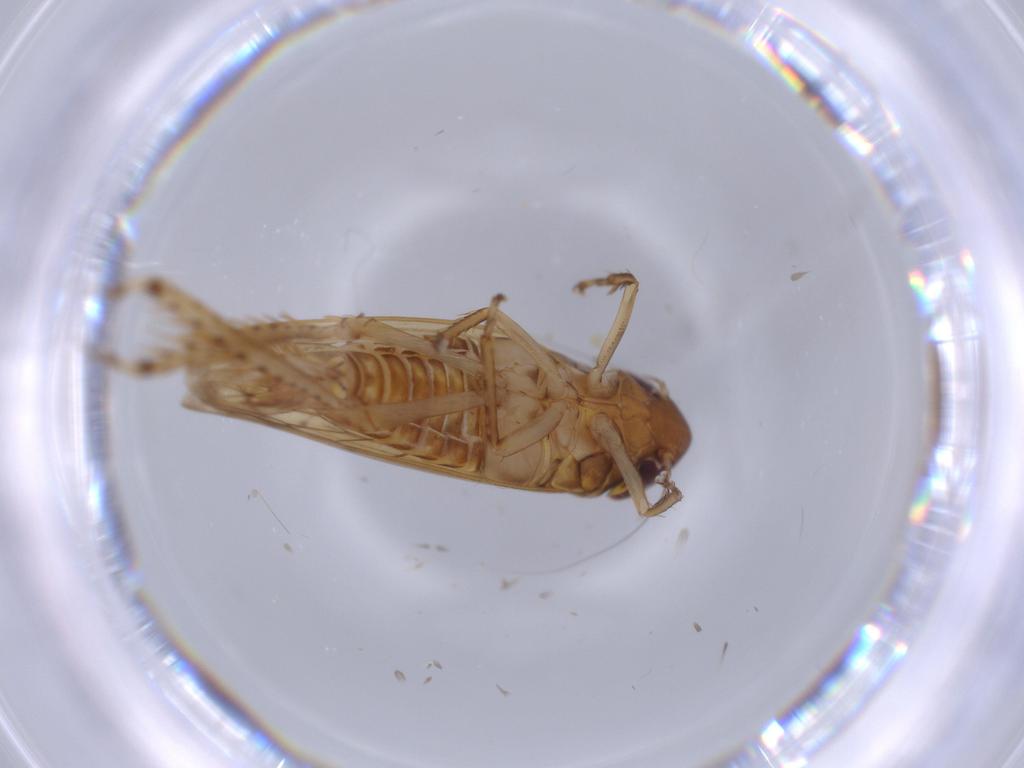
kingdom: Animalia
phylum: Arthropoda
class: Insecta
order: Hemiptera
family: Cicadellidae
